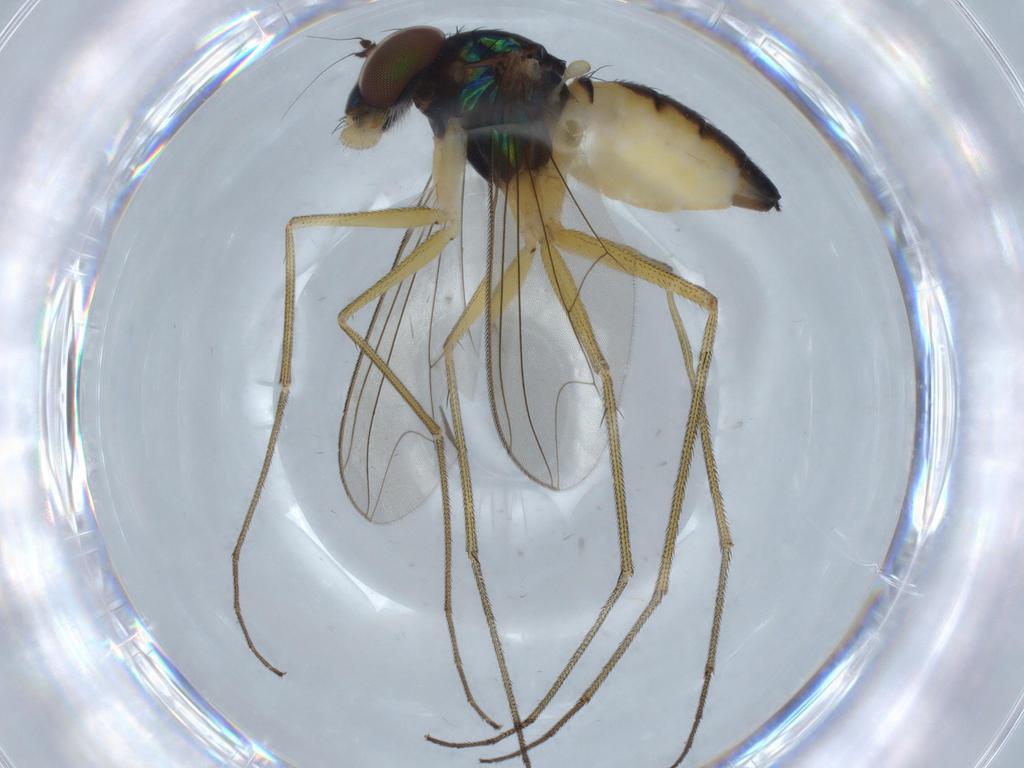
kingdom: Animalia
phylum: Arthropoda
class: Insecta
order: Diptera
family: Dolichopodidae
